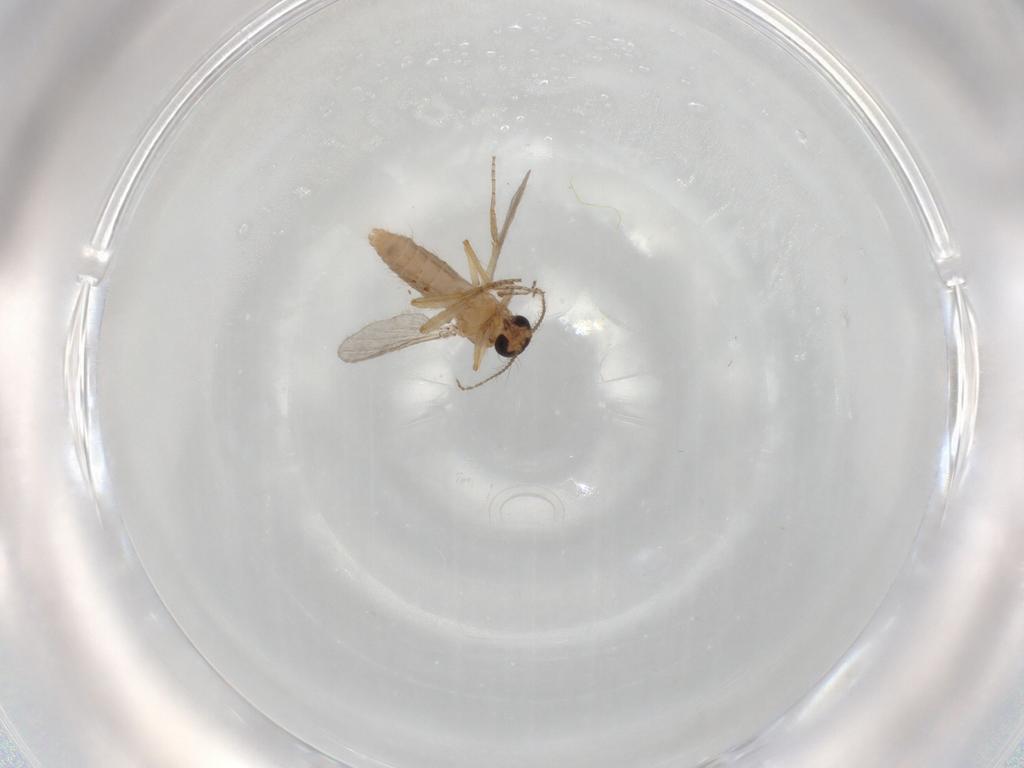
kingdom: Animalia
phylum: Arthropoda
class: Insecta
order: Diptera
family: Ceratopogonidae
